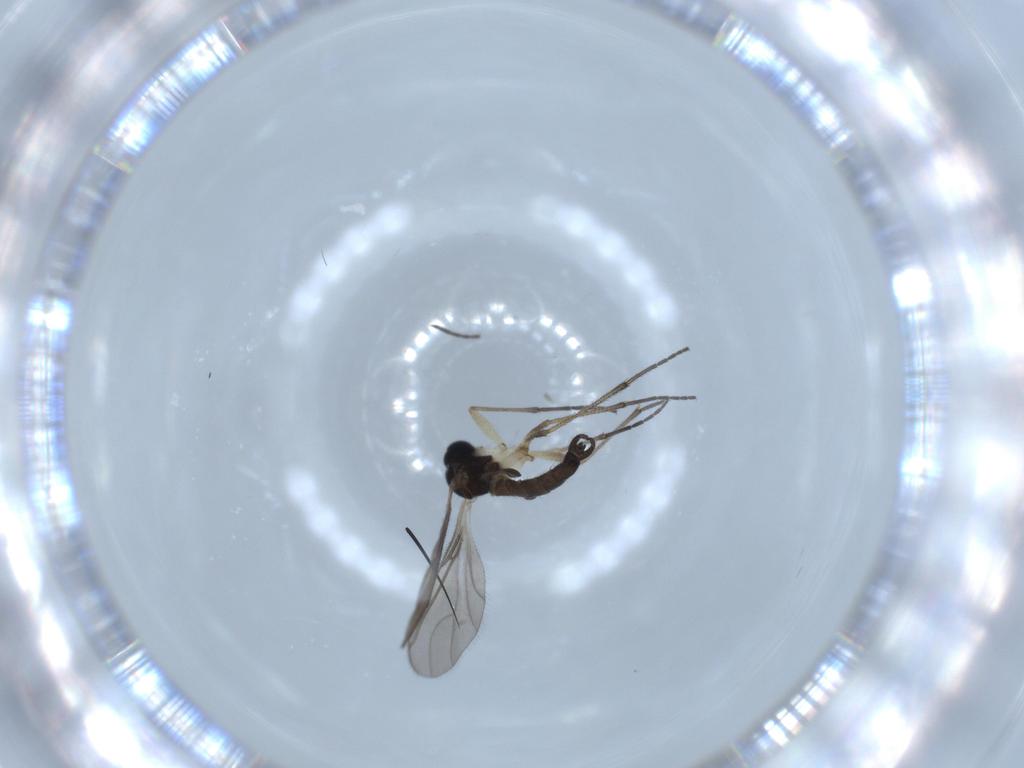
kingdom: Animalia
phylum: Arthropoda
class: Insecta
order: Diptera
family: Sciaridae
